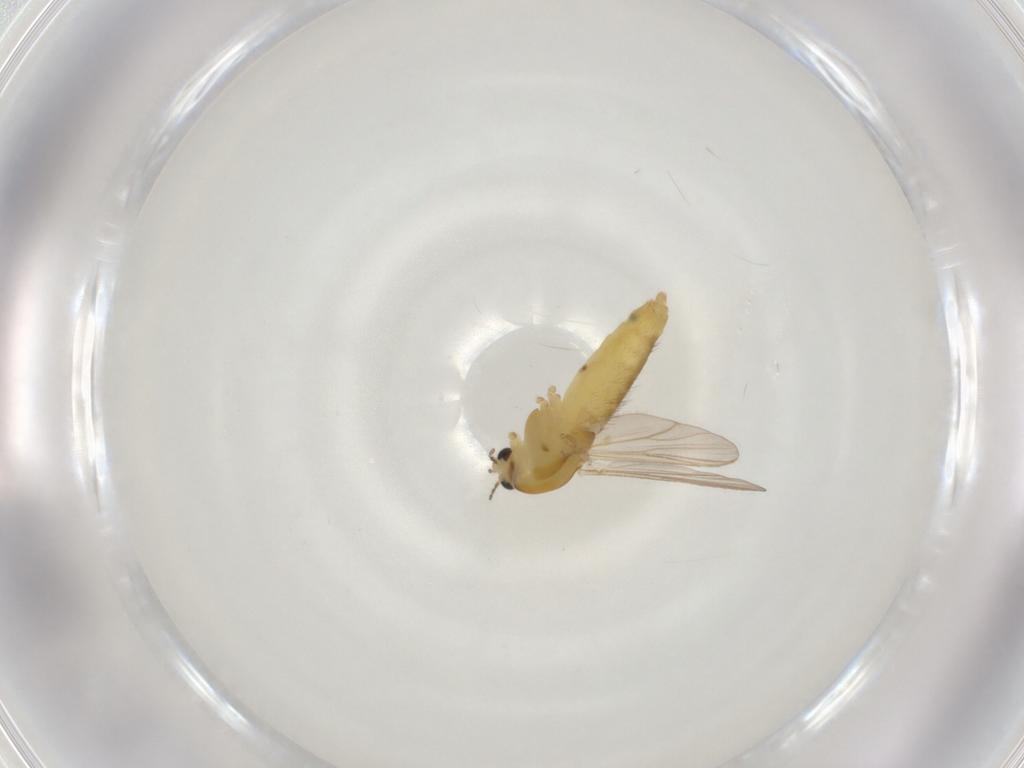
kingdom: Animalia
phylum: Arthropoda
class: Insecta
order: Diptera
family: Chironomidae
